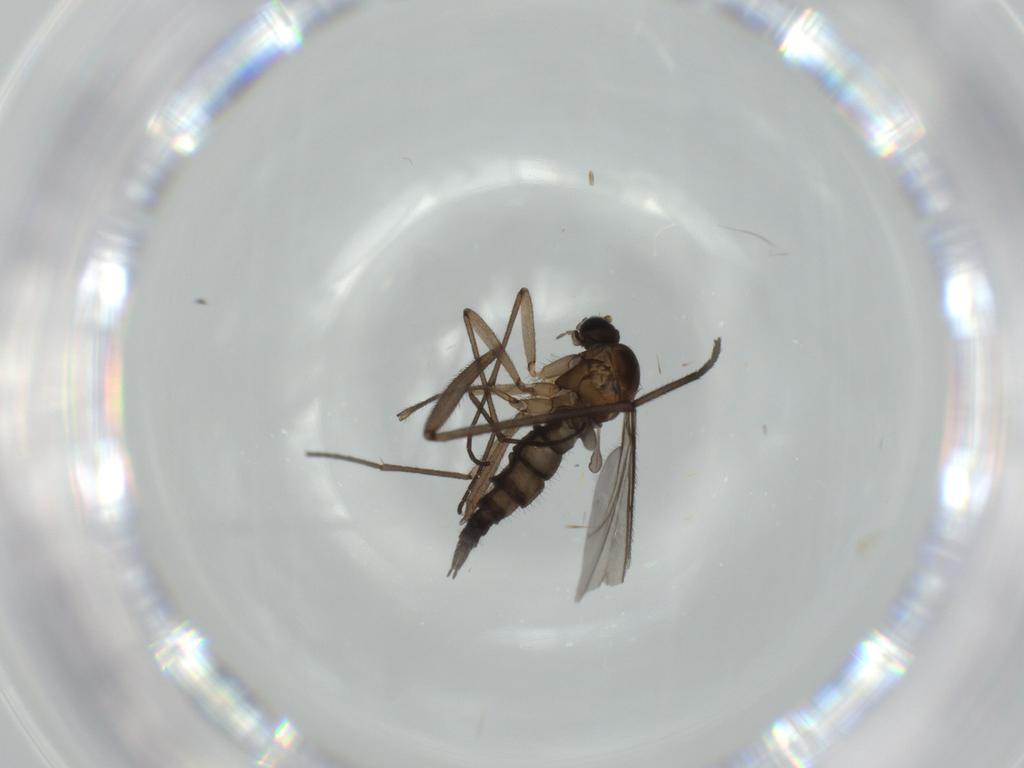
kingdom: Animalia
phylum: Arthropoda
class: Insecta
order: Diptera
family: Sciaridae
